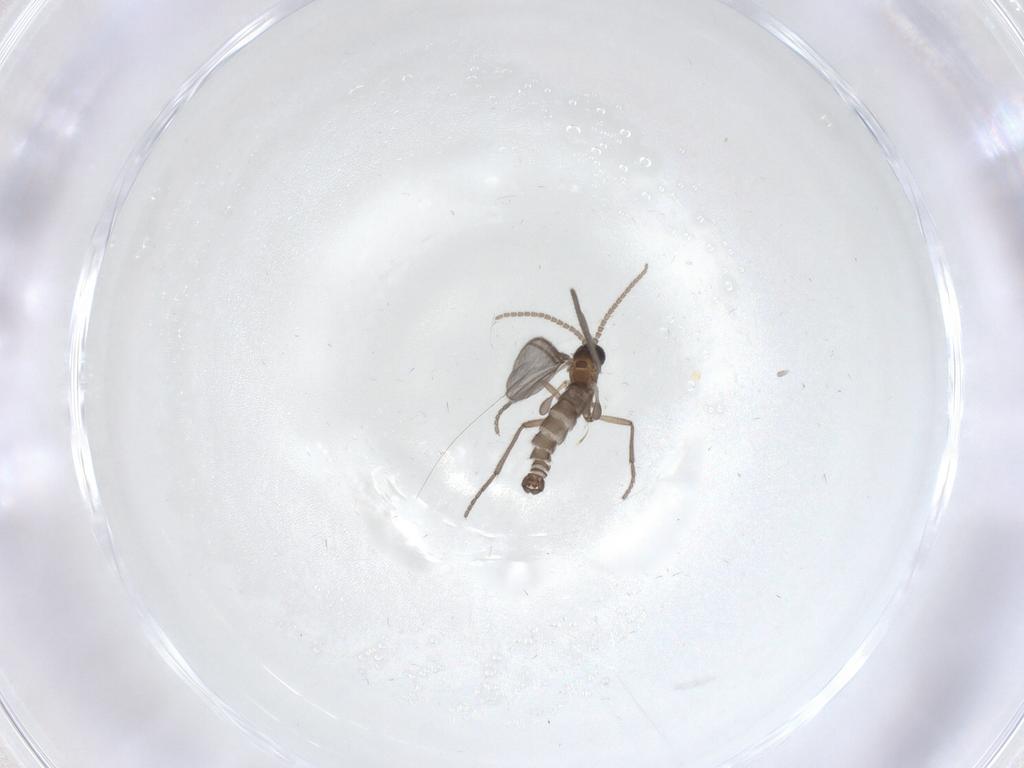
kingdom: Animalia
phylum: Arthropoda
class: Insecta
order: Diptera
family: Sciaridae
